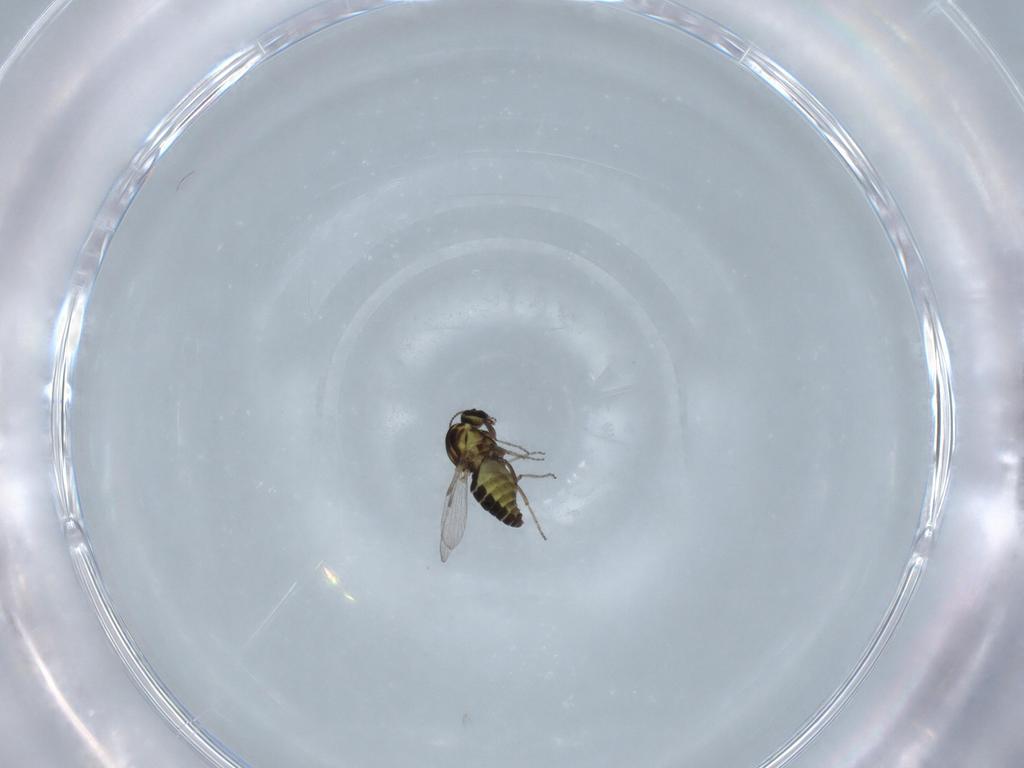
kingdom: Animalia
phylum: Arthropoda
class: Insecta
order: Diptera
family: Ceratopogonidae
